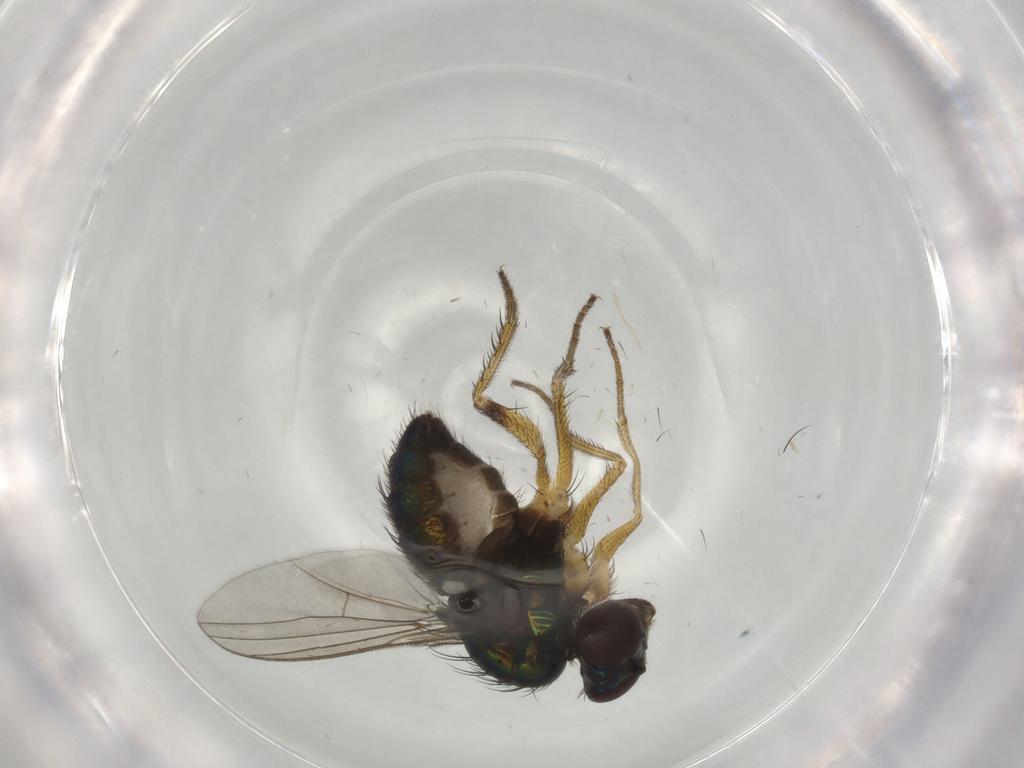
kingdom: Animalia
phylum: Arthropoda
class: Insecta
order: Diptera
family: Dolichopodidae
